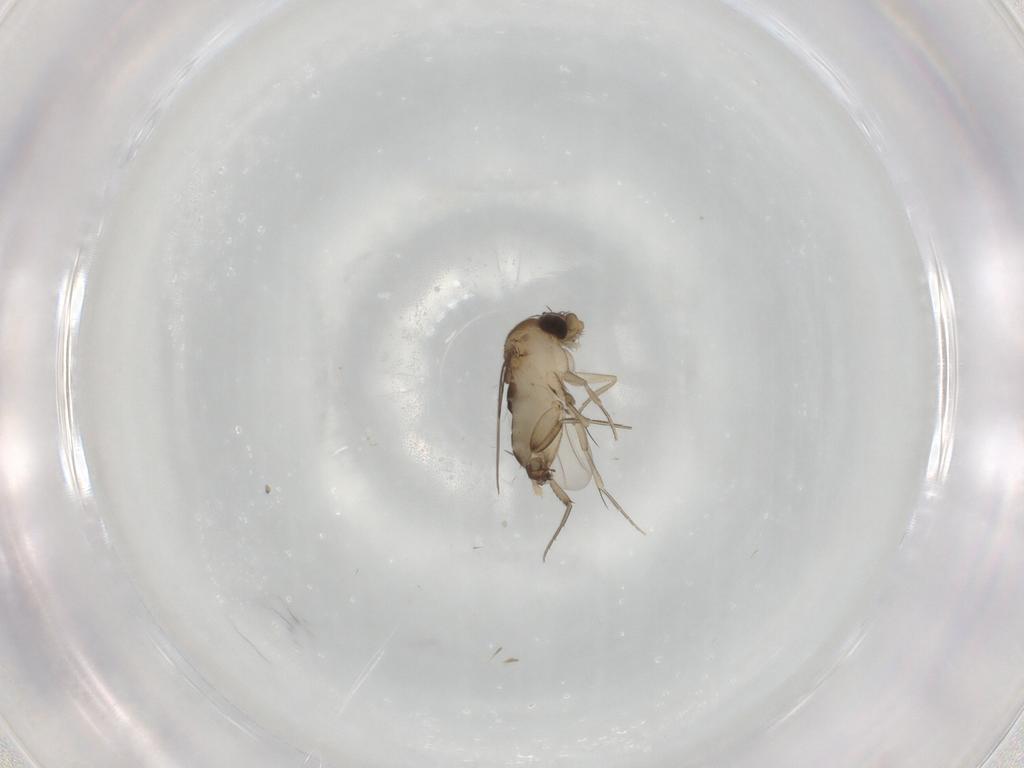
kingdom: Animalia
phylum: Arthropoda
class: Insecta
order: Diptera
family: Phoridae
